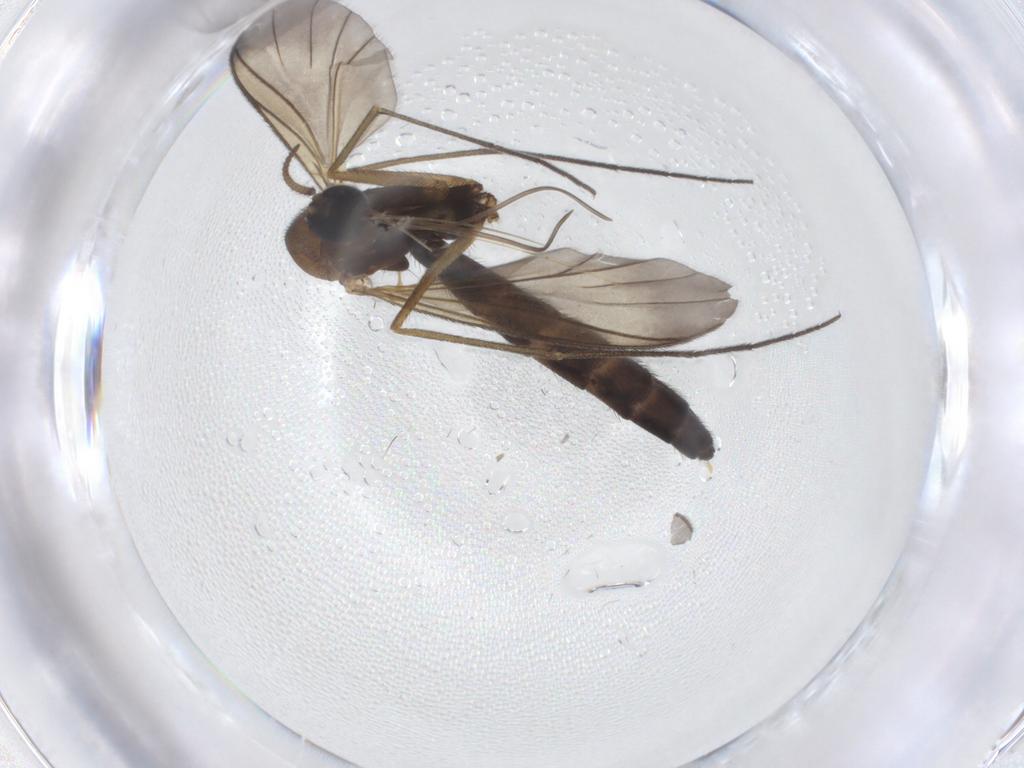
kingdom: Animalia
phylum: Arthropoda
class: Insecta
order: Diptera
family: Keroplatidae
